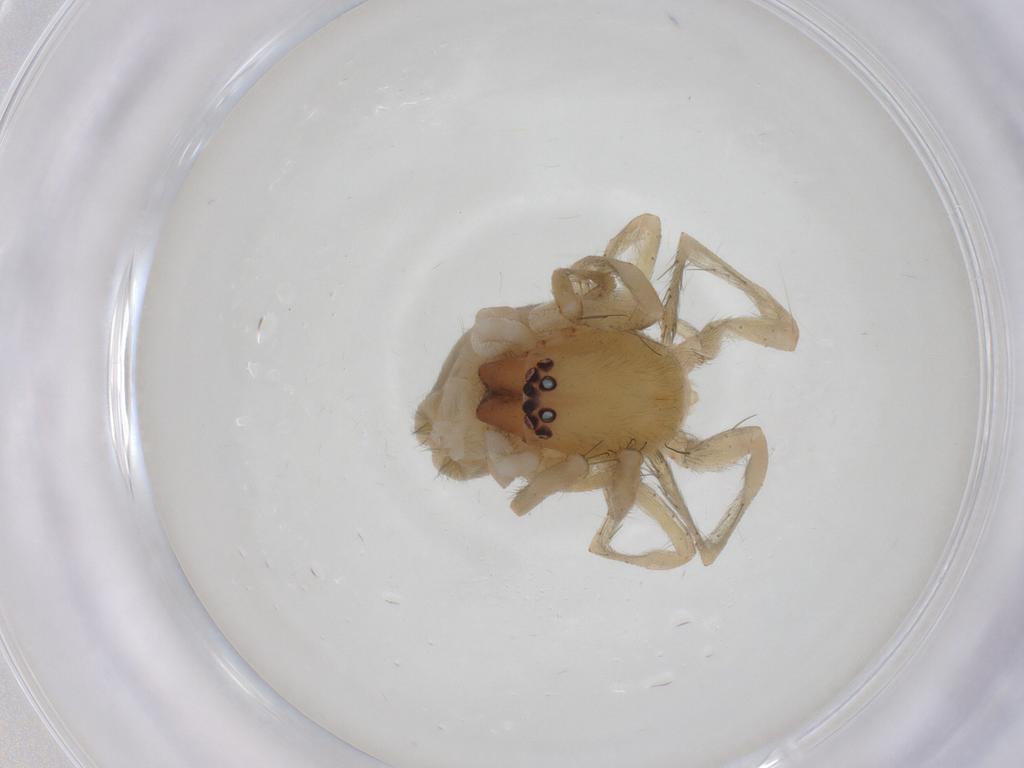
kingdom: Animalia
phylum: Arthropoda
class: Arachnida
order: Araneae
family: Clubionidae
